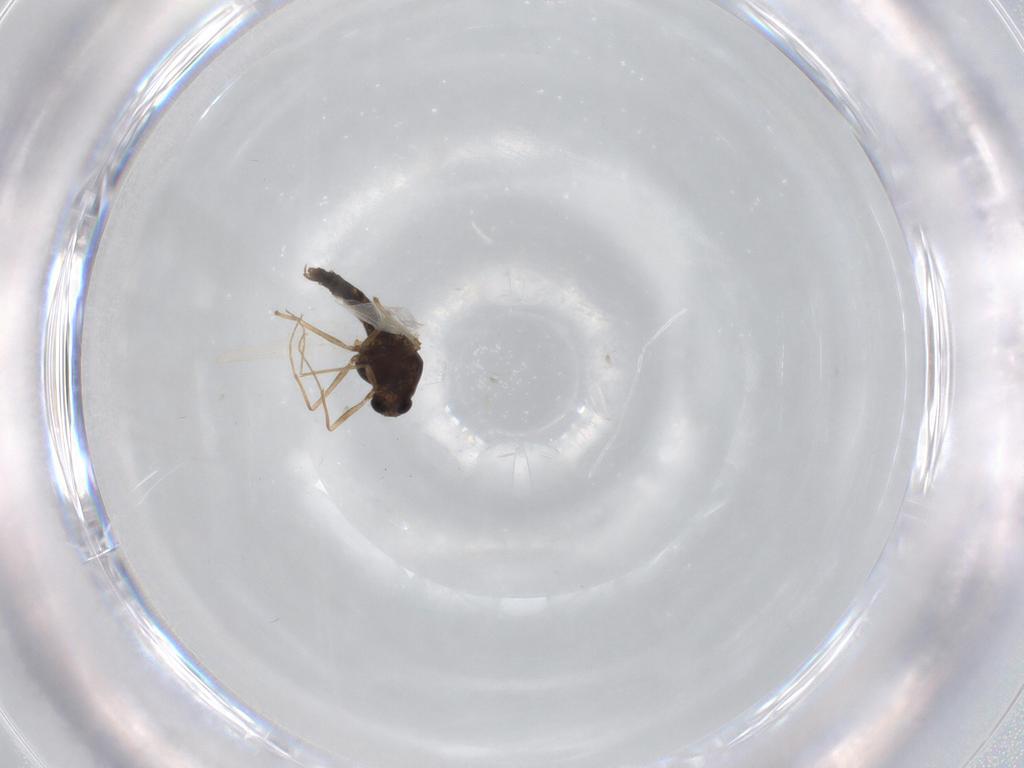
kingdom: Animalia
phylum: Arthropoda
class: Insecta
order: Diptera
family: Chironomidae
